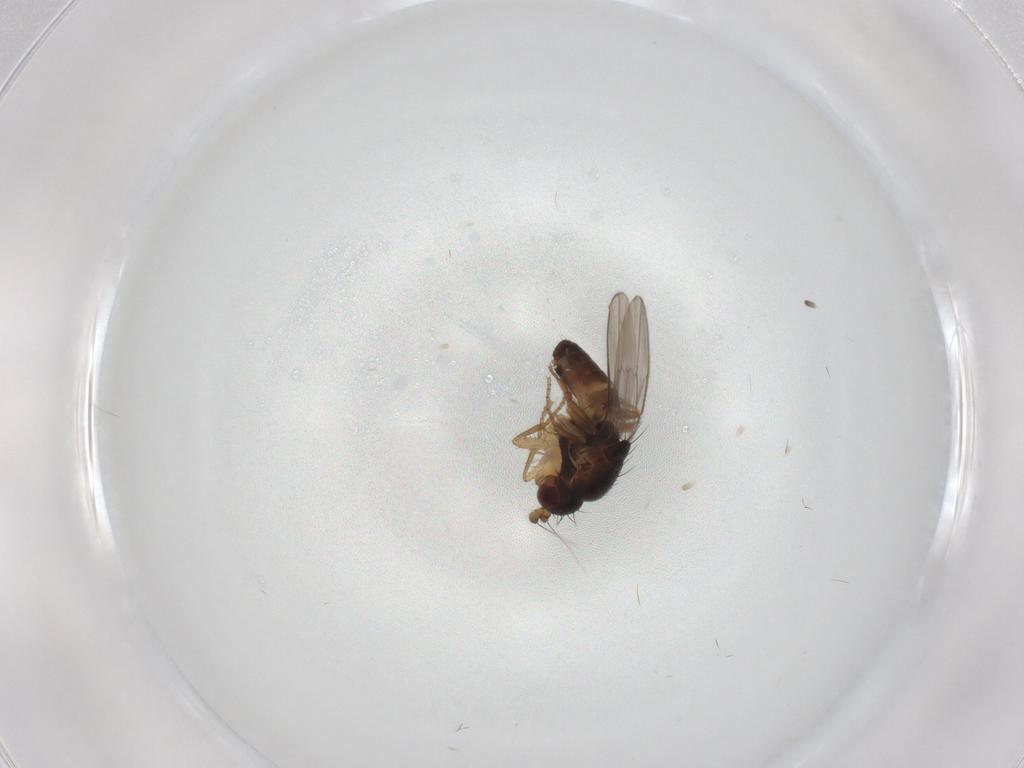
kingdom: Animalia
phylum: Arthropoda
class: Insecta
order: Diptera
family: Sphaeroceridae
